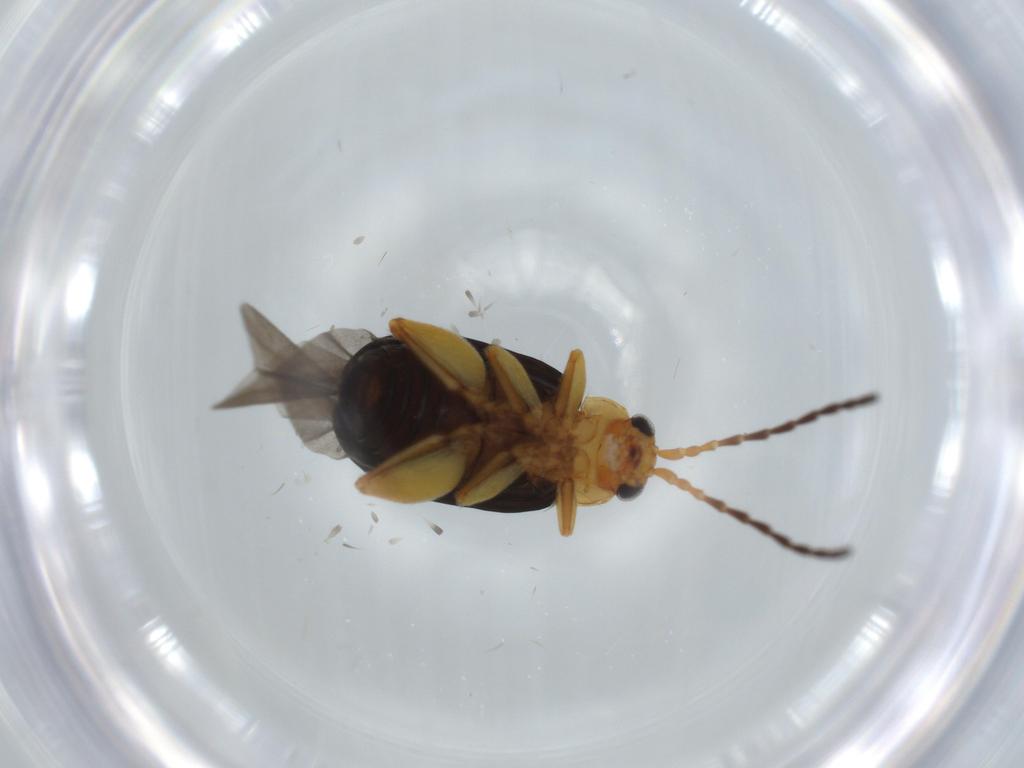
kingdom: Animalia
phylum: Arthropoda
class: Insecta
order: Coleoptera
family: Chrysomelidae
